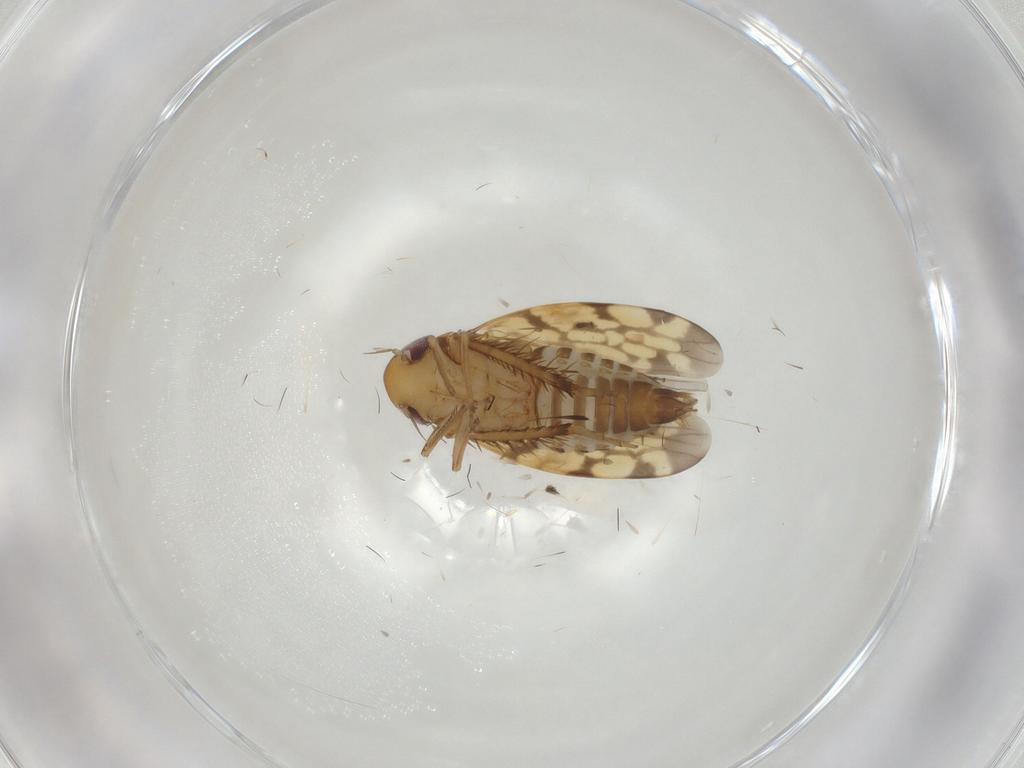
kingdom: Animalia
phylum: Arthropoda
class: Insecta
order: Hemiptera
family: Cicadellidae
